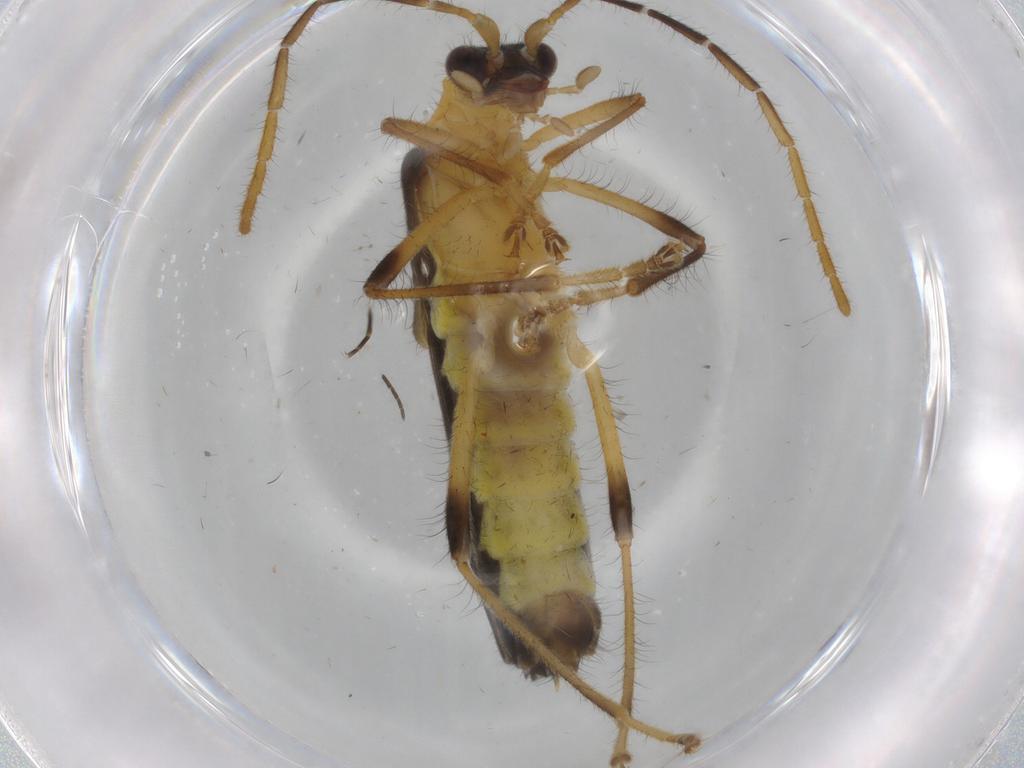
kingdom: Animalia
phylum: Arthropoda
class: Insecta
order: Coleoptera
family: Cantharidae
